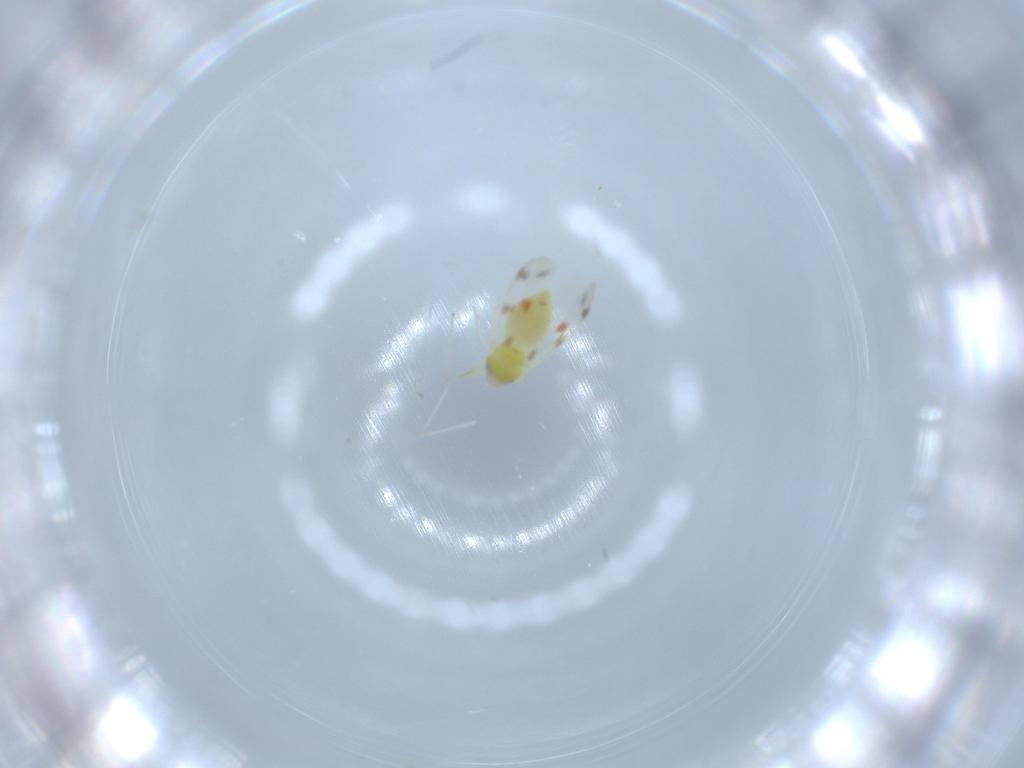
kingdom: Animalia
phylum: Arthropoda
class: Insecta
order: Hemiptera
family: Aleyrodidae
